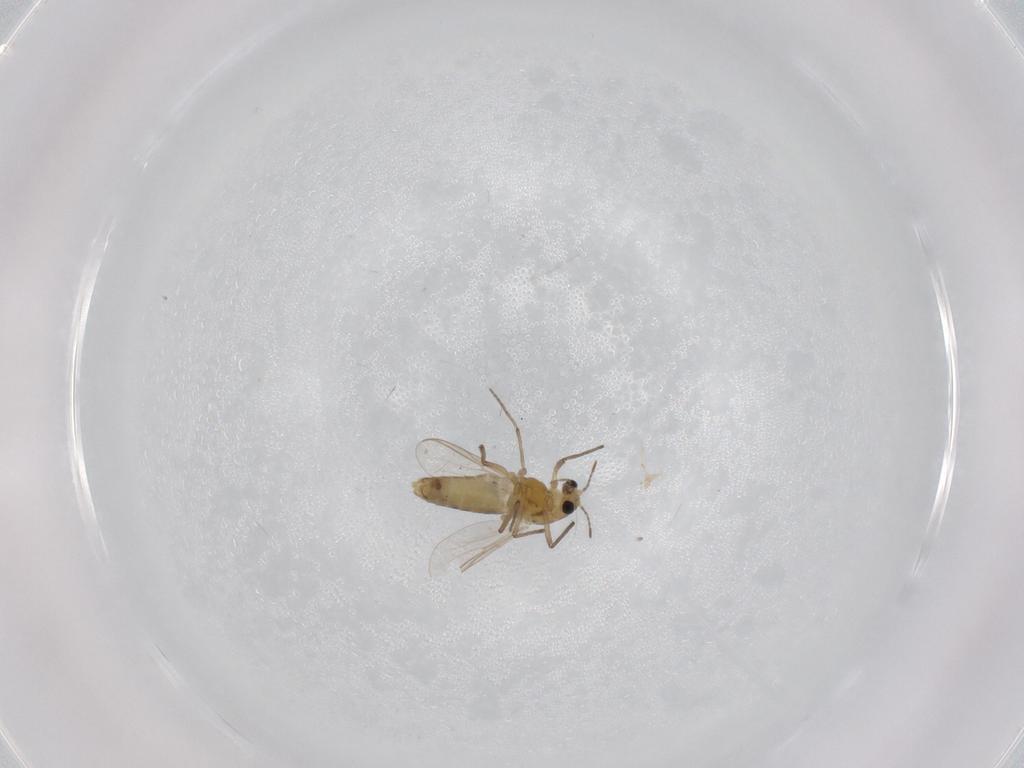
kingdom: Animalia
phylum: Arthropoda
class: Insecta
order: Diptera
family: Chironomidae
